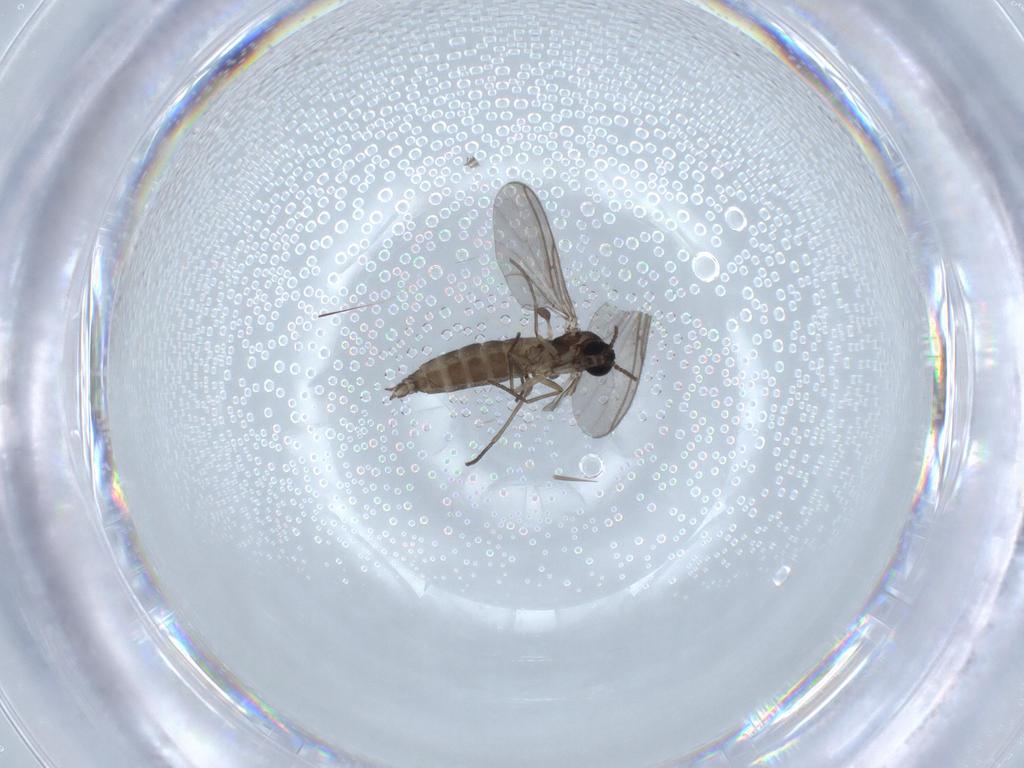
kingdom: Animalia
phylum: Arthropoda
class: Insecta
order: Diptera
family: Sciaridae
